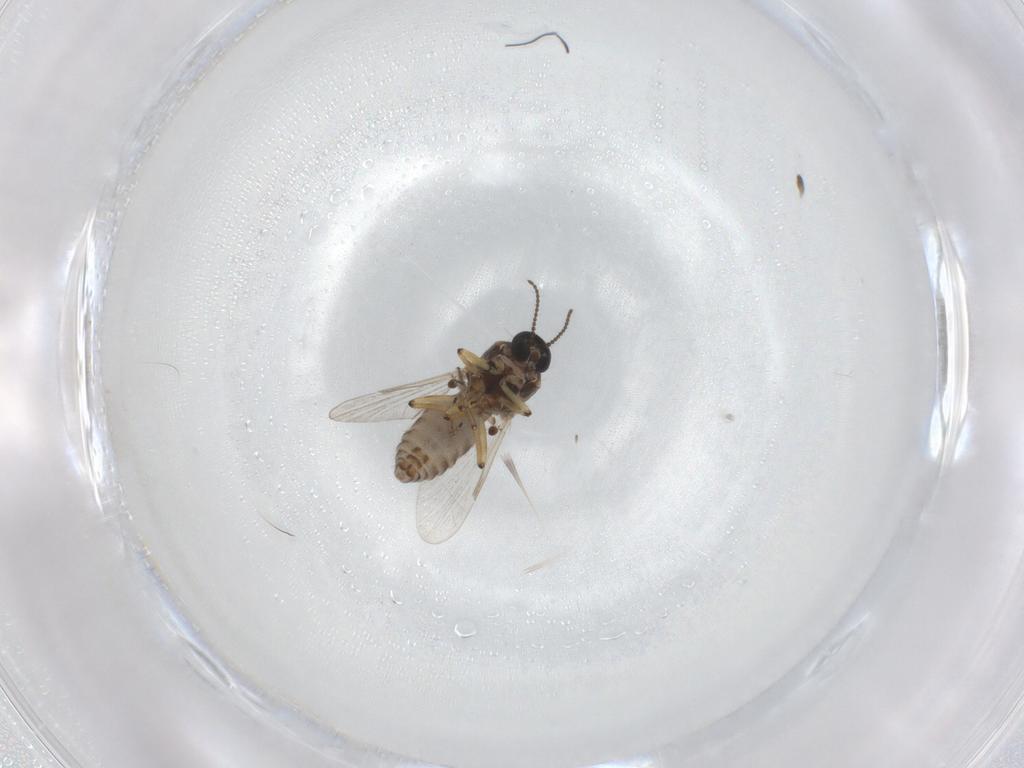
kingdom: Animalia
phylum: Arthropoda
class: Insecta
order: Diptera
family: Ceratopogonidae
